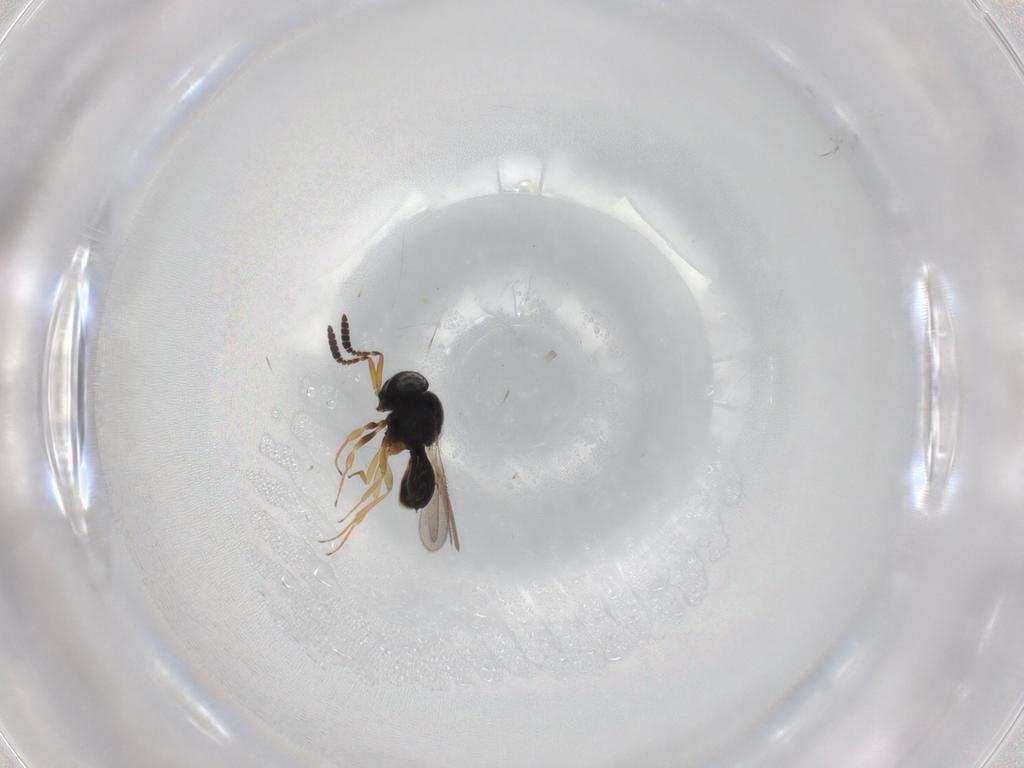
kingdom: Animalia
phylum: Arthropoda
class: Insecta
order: Hymenoptera
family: Scelionidae
